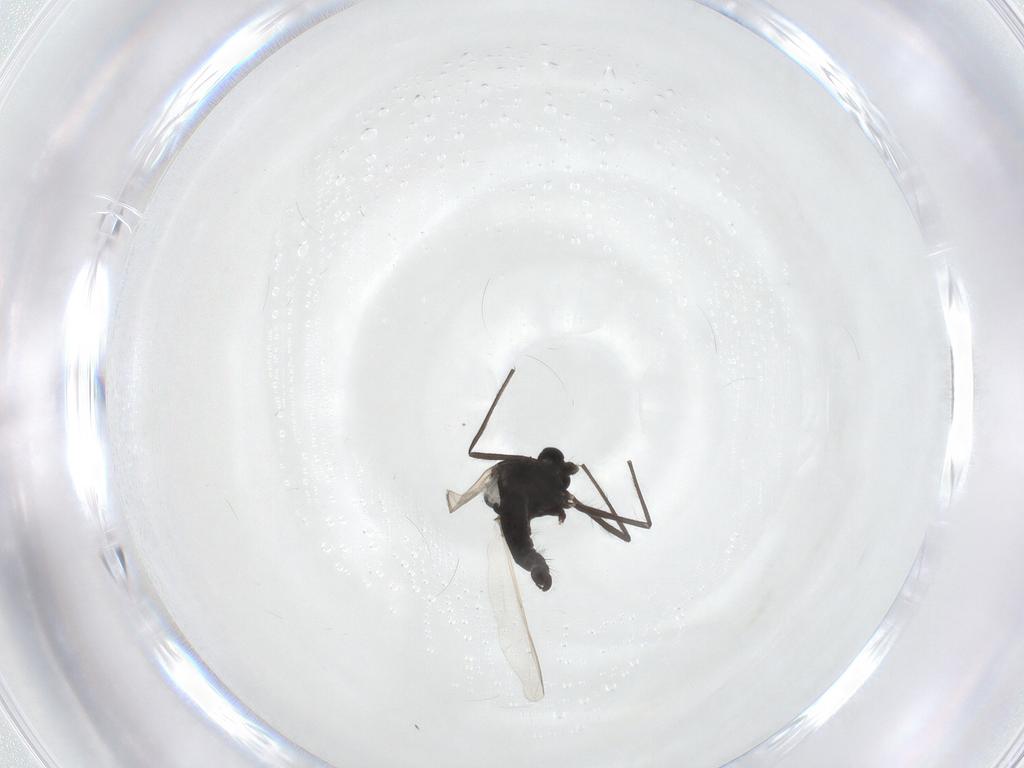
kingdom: Animalia
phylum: Arthropoda
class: Insecta
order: Diptera
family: Chironomidae
